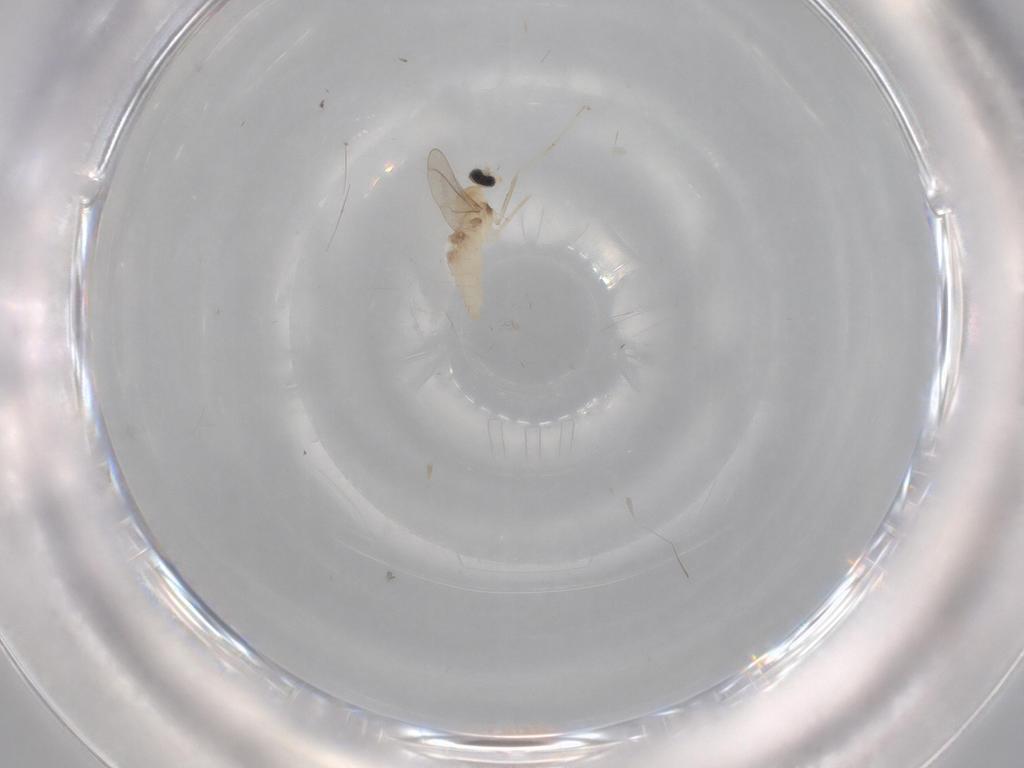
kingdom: Animalia
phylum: Arthropoda
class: Insecta
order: Diptera
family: Cecidomyiidae
